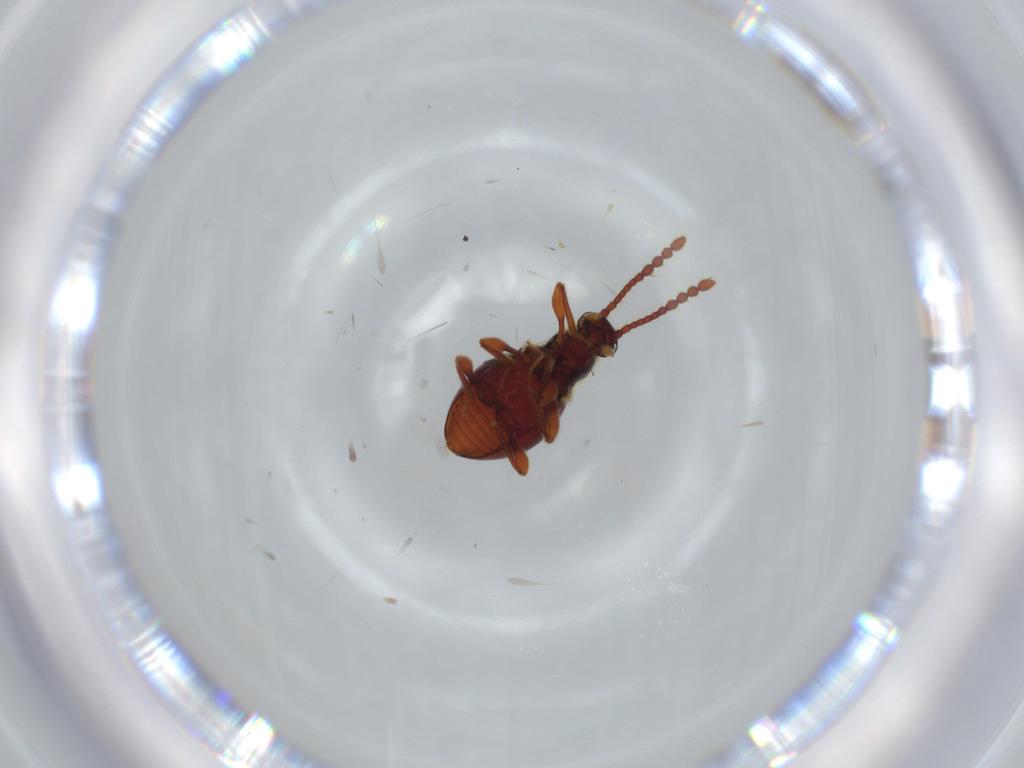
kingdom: Animalia
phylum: Arthropoda
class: Insecta
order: Coleoptera
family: Staphylinidae
